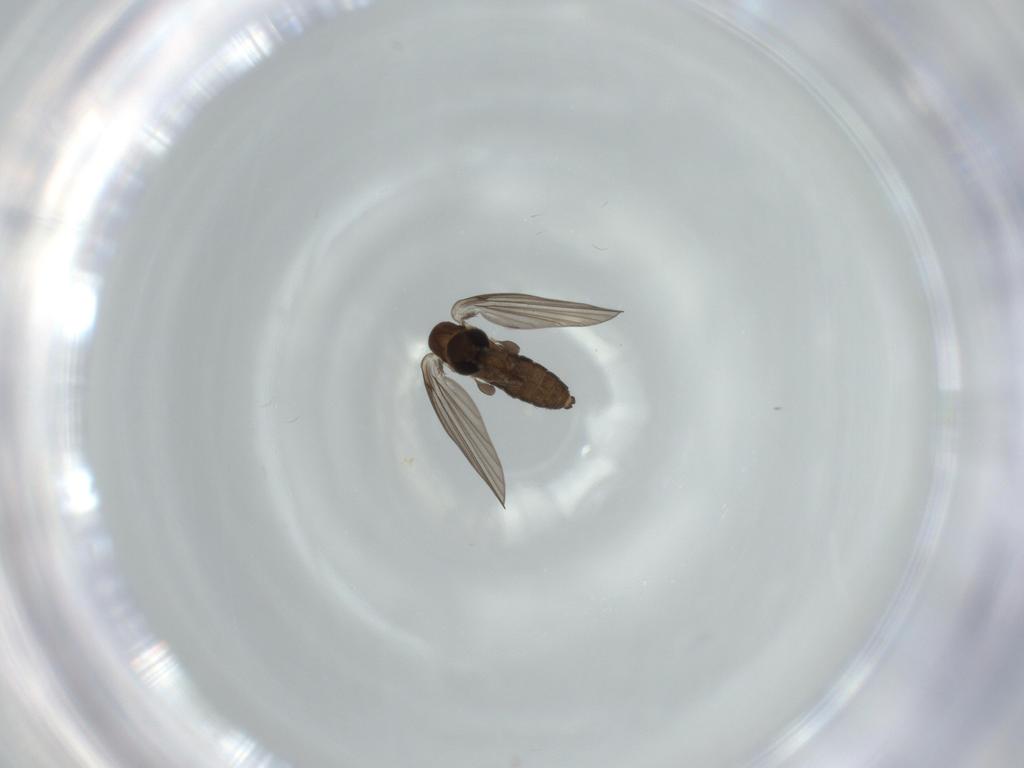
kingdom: Animalia
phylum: Arthropoda
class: Insecta
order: Diptera
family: Psychodidae
